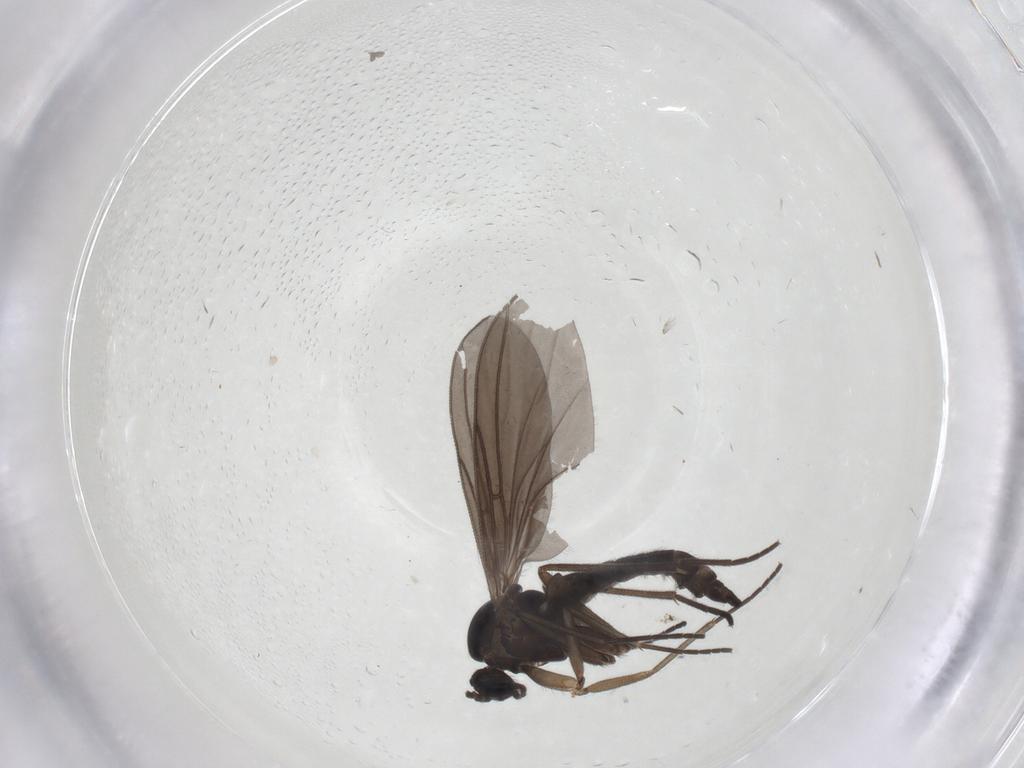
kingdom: Animalia
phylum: Arthropoda
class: Insecta
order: Diptera
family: Sciaridae
